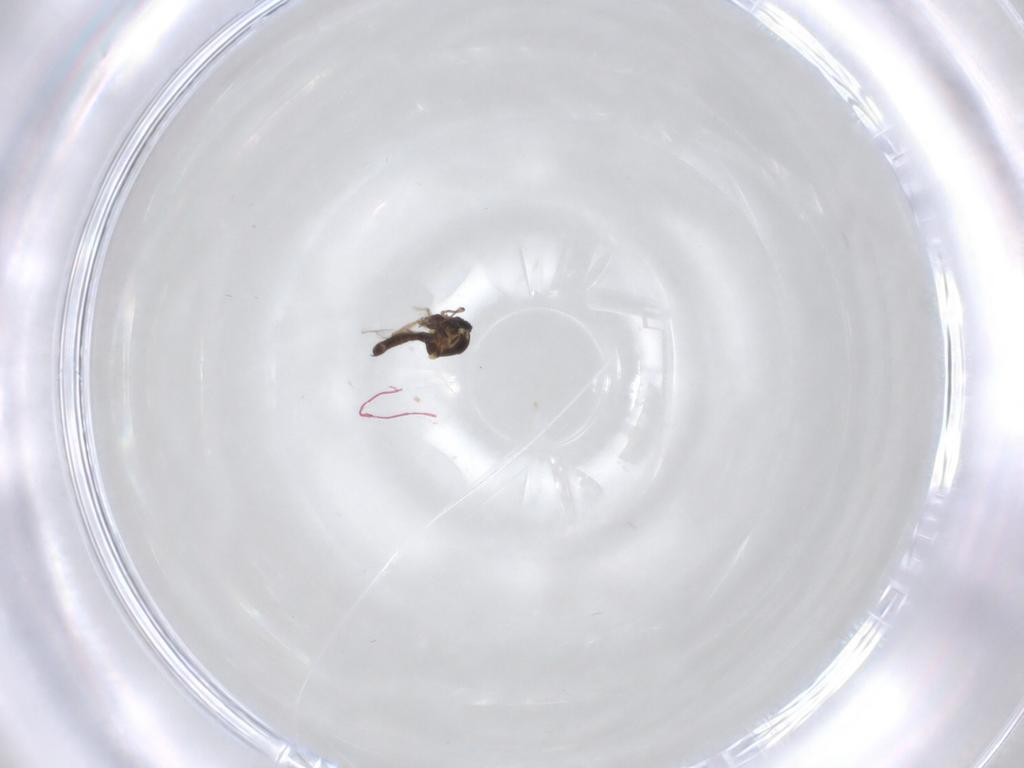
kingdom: Animalia
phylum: Arthropoda
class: Insecta
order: Diptera
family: Ceratopogonidae
